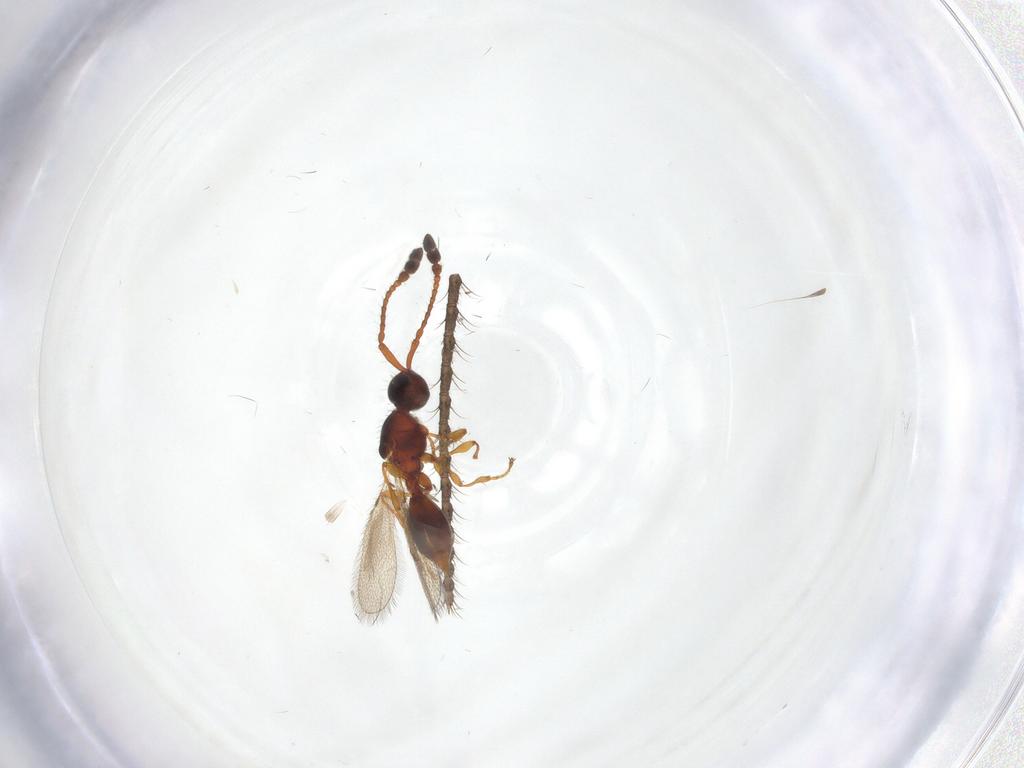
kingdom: Animalia
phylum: Arthropoda
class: Insecta
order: Hymenoptera
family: Diapriidae
